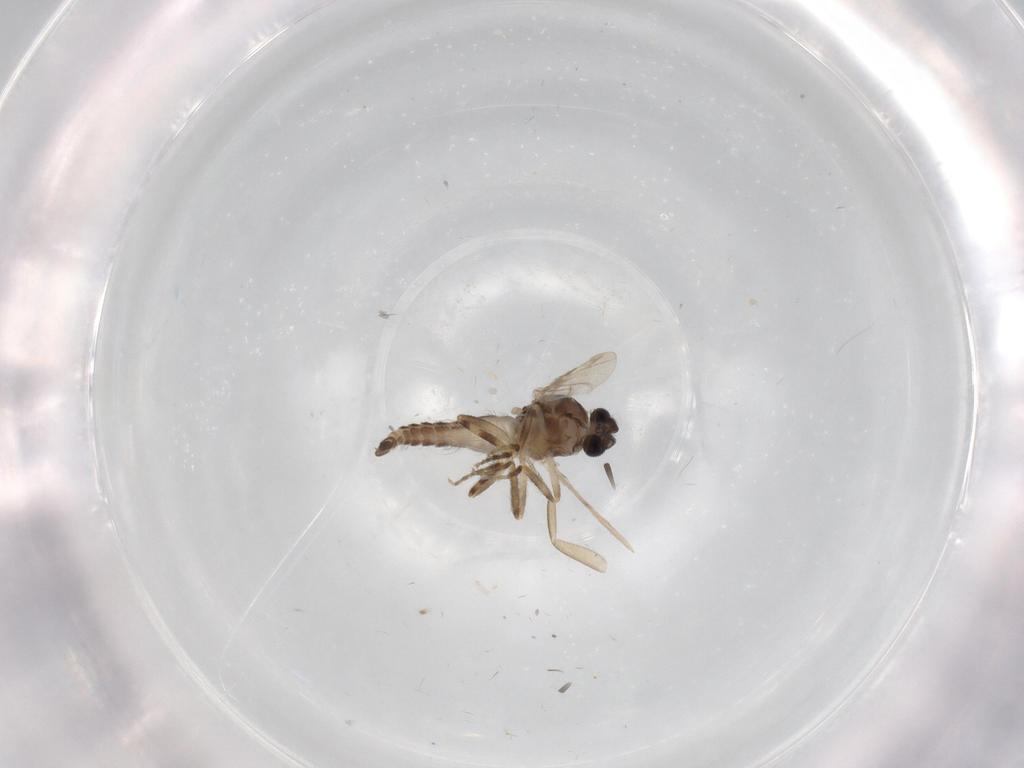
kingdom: Animalia
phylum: Arthropoda
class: Insecta
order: Diptera
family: Ceratopogonidae
